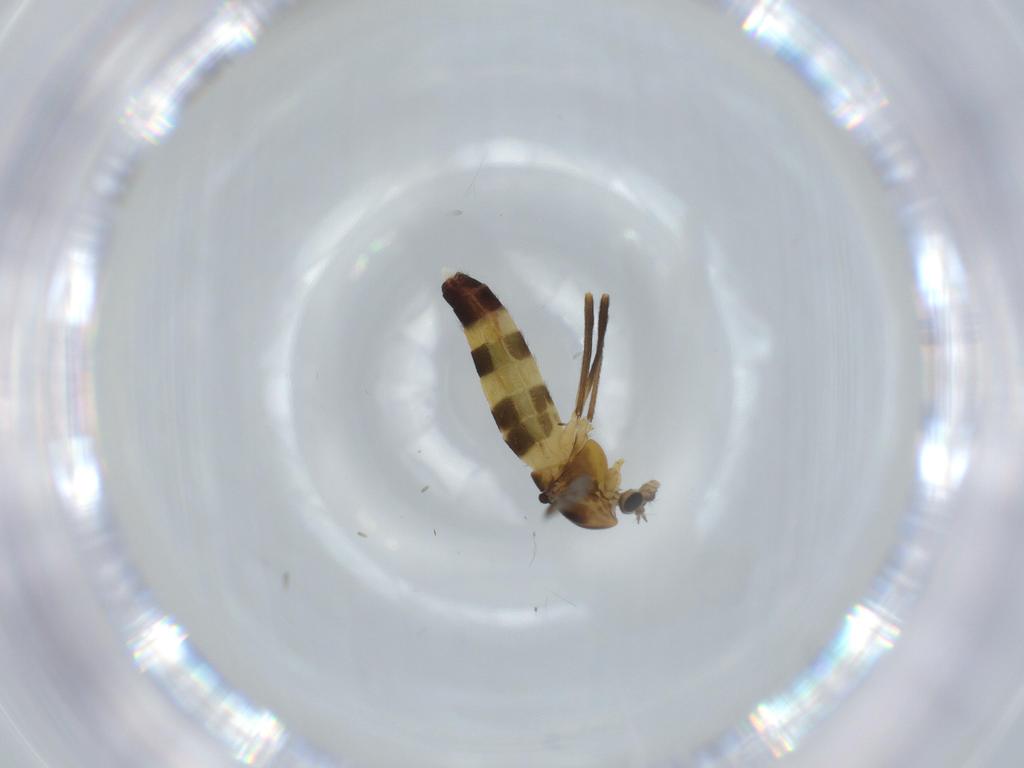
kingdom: Animalia
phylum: Arthropoda
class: Insecta
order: Diptera
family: Chironomidae
